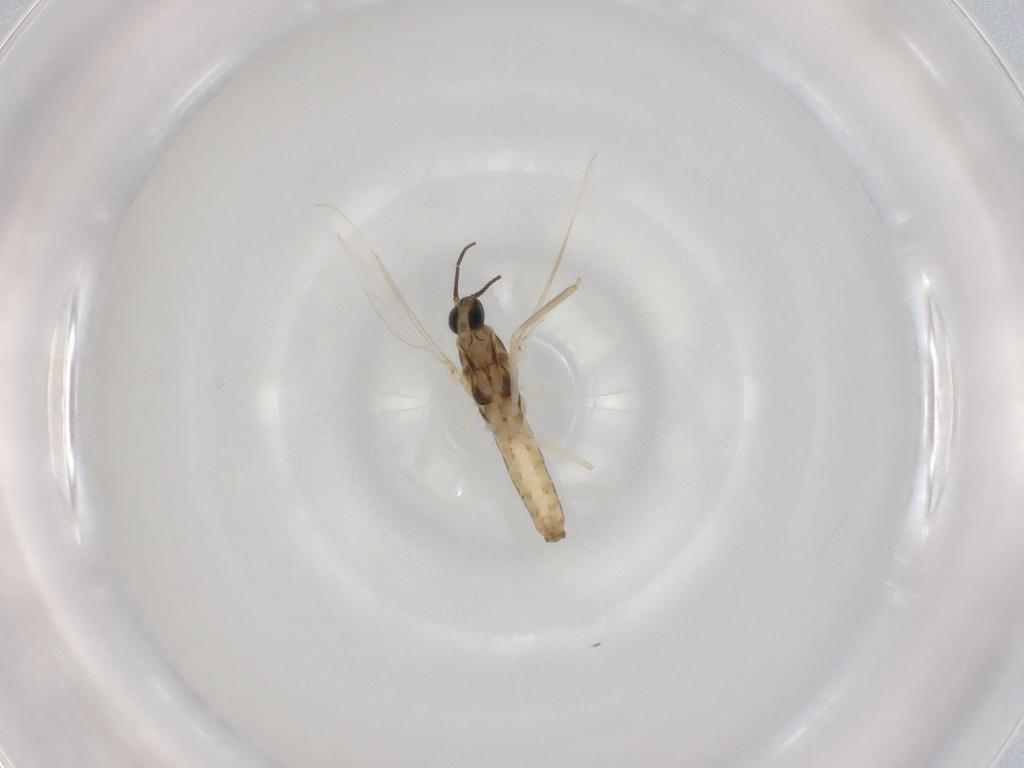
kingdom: Animalia
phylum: Arthropoda
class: Insecta
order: Diptera
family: Cecidomyiidae
